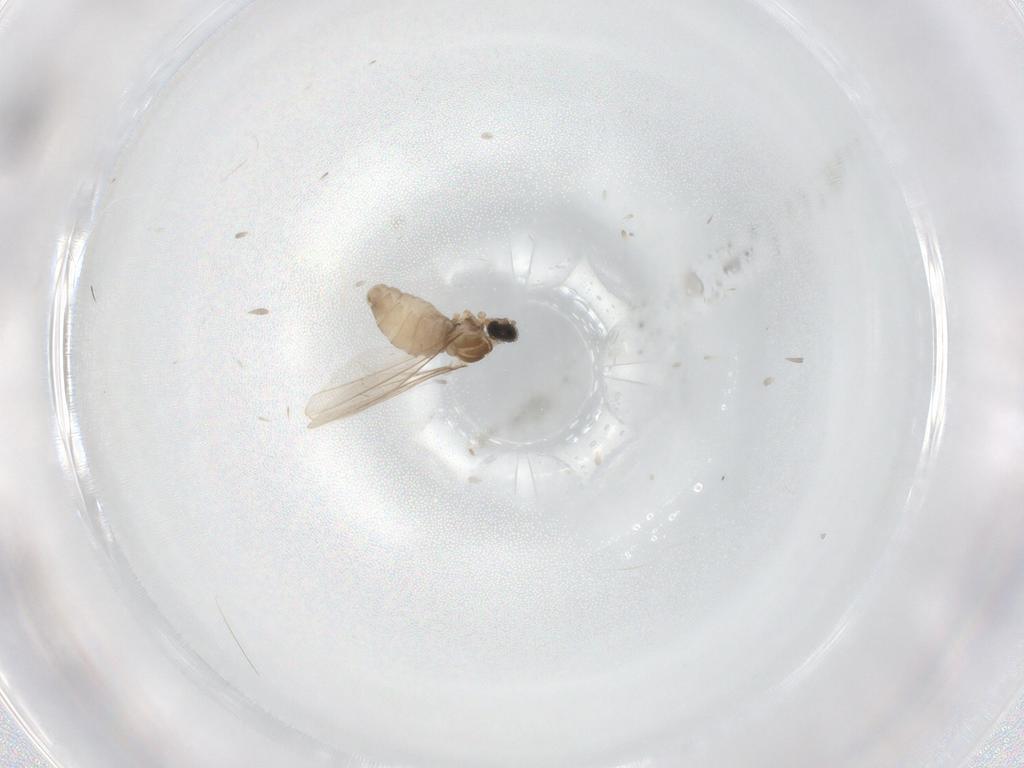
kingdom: Animalia
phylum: Arthropoda
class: Insecta
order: Diptera
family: Cecidomyiidae
